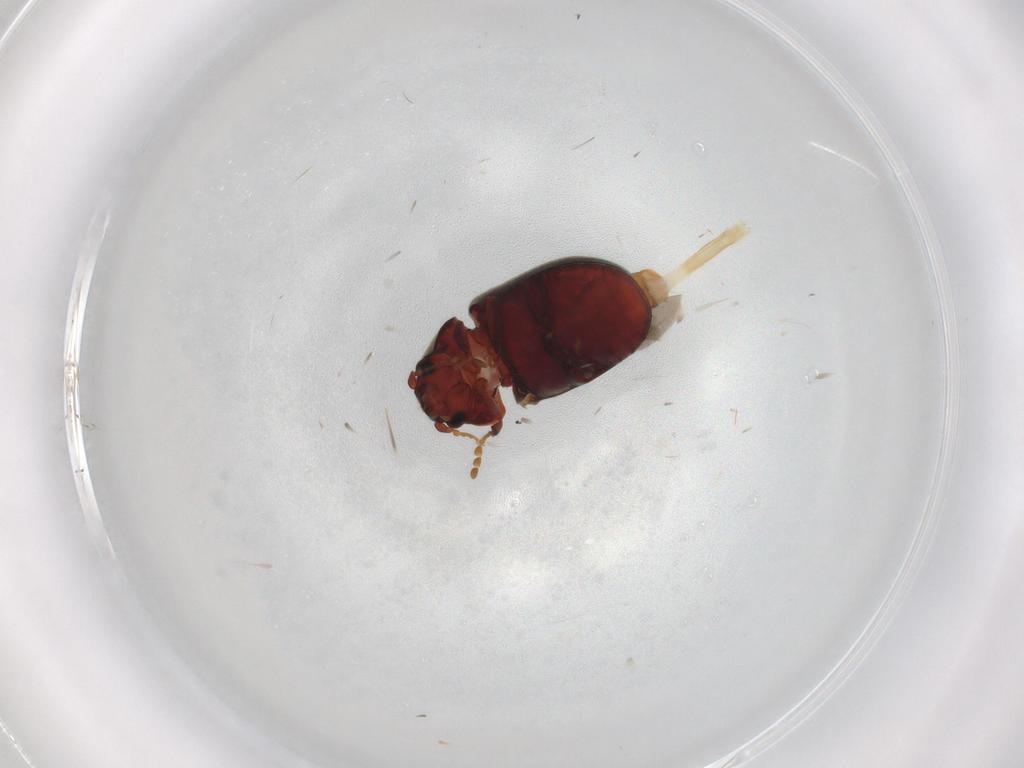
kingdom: Animalia
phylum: Arthropoda
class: Insecta
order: Coleoptera
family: Ptinidae
